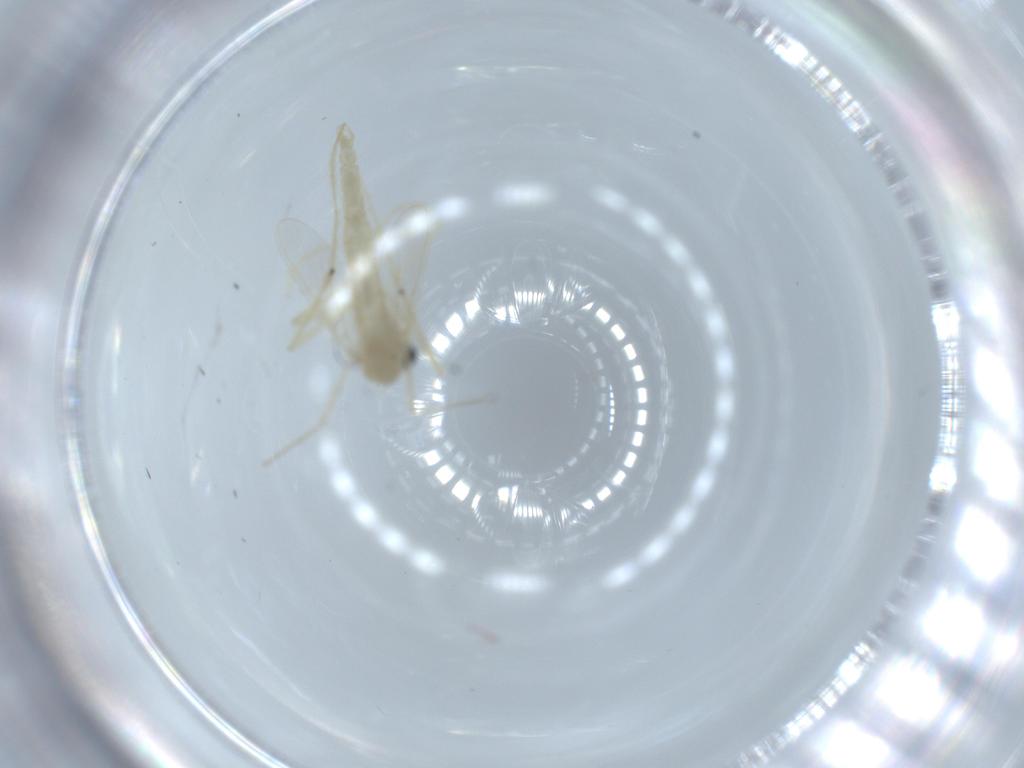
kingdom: Animalia
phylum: Arthropoda
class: Insecta
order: Diptera
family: Chironomidae
